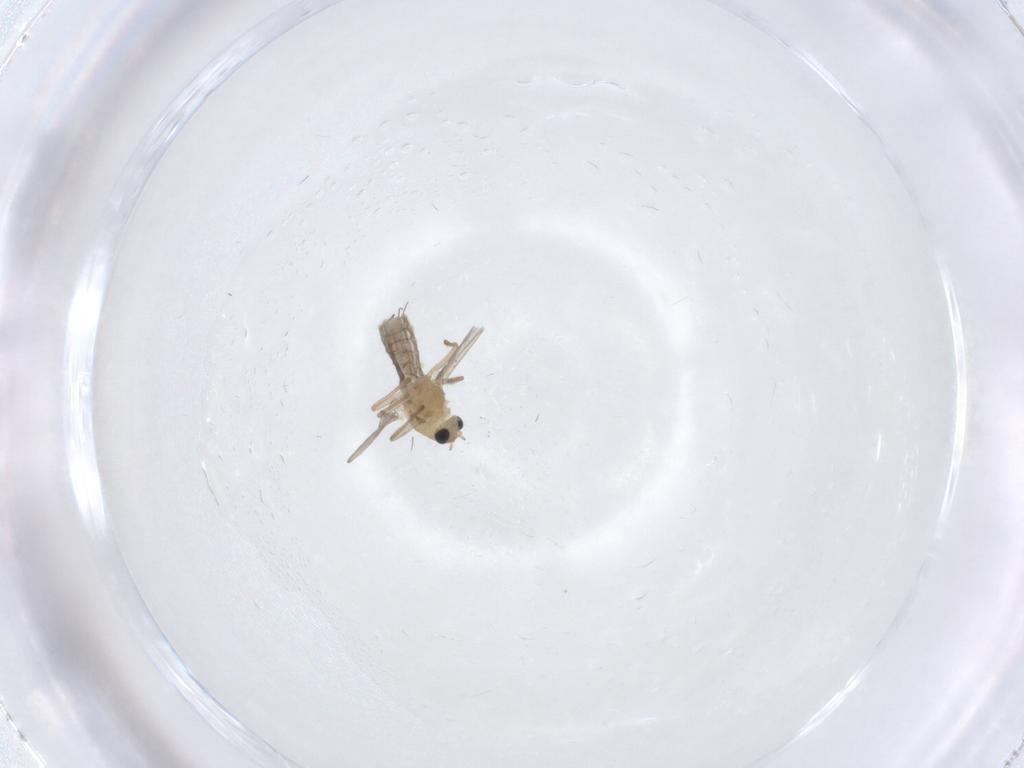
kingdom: Animalia
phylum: Arthropoda
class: Insecta
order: Diptera
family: Chironomidae
